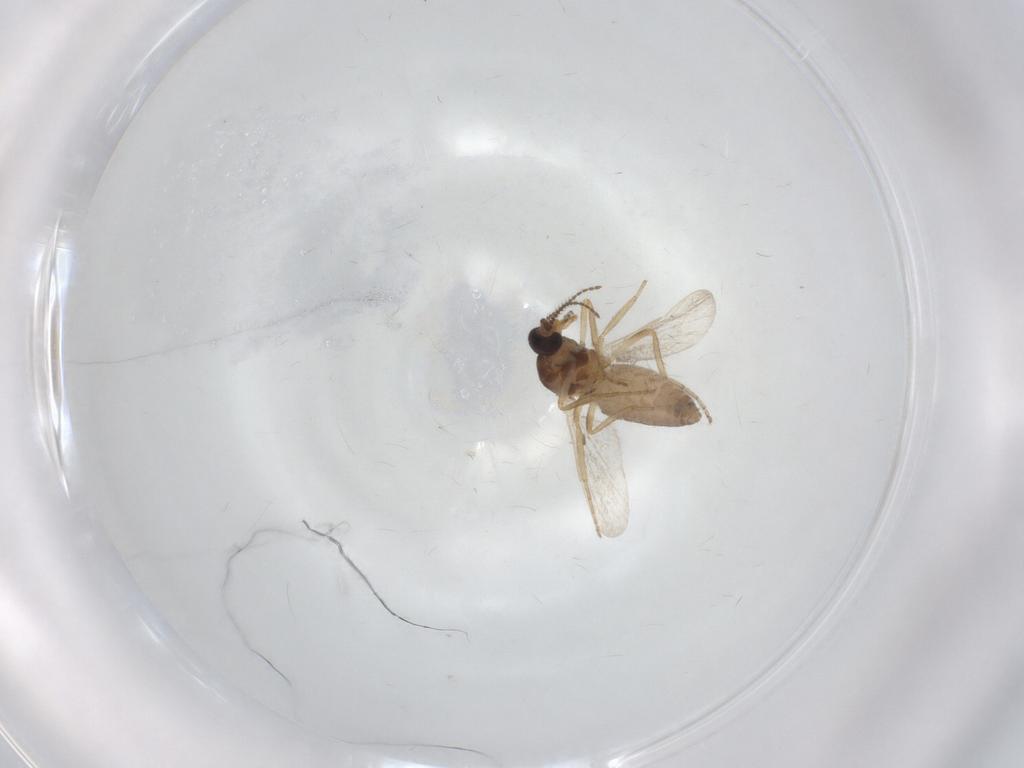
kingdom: Animalia
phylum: Arthropoda
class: Insecta
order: Diptera
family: Ceratopogonidae
